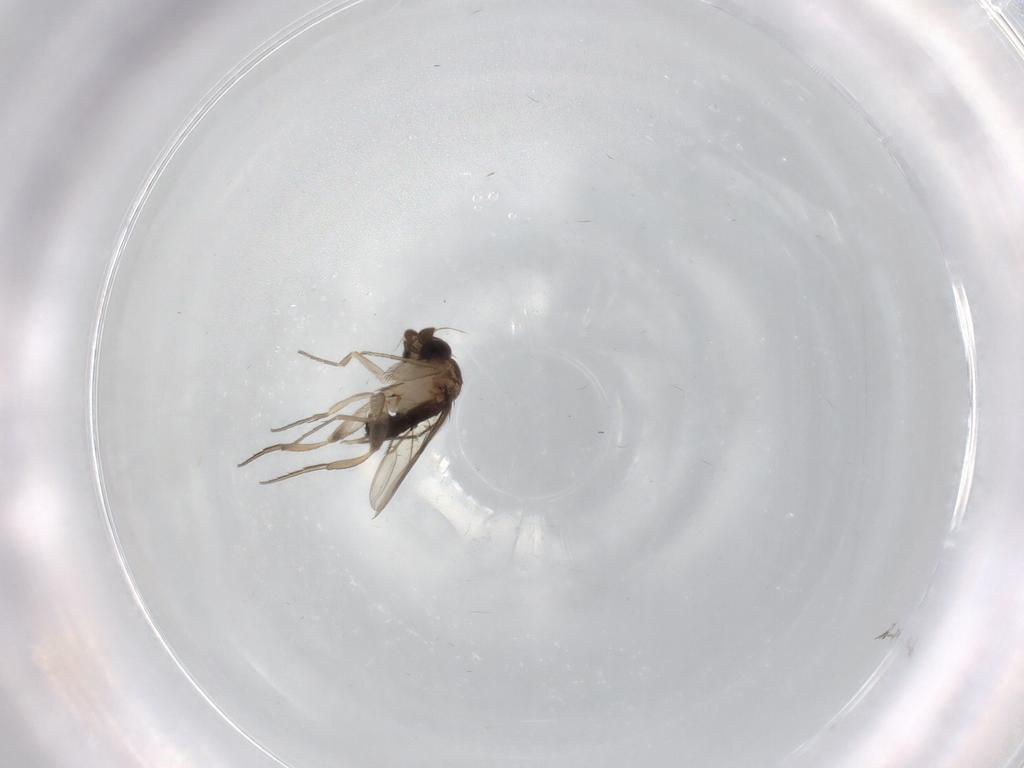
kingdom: Animalia
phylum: Arthropoda
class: Insecta
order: Diptera
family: Chironomidae
